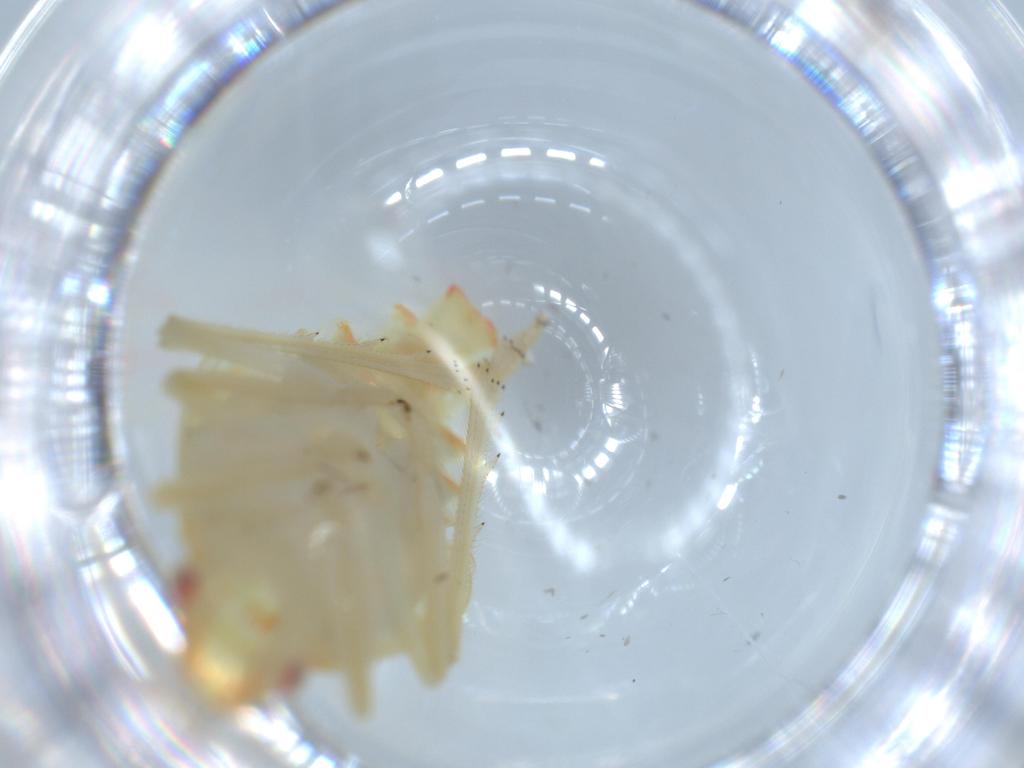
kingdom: Animalia
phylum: Arthropoda
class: Insecta
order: Hemiptera
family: Tropiduchidae
